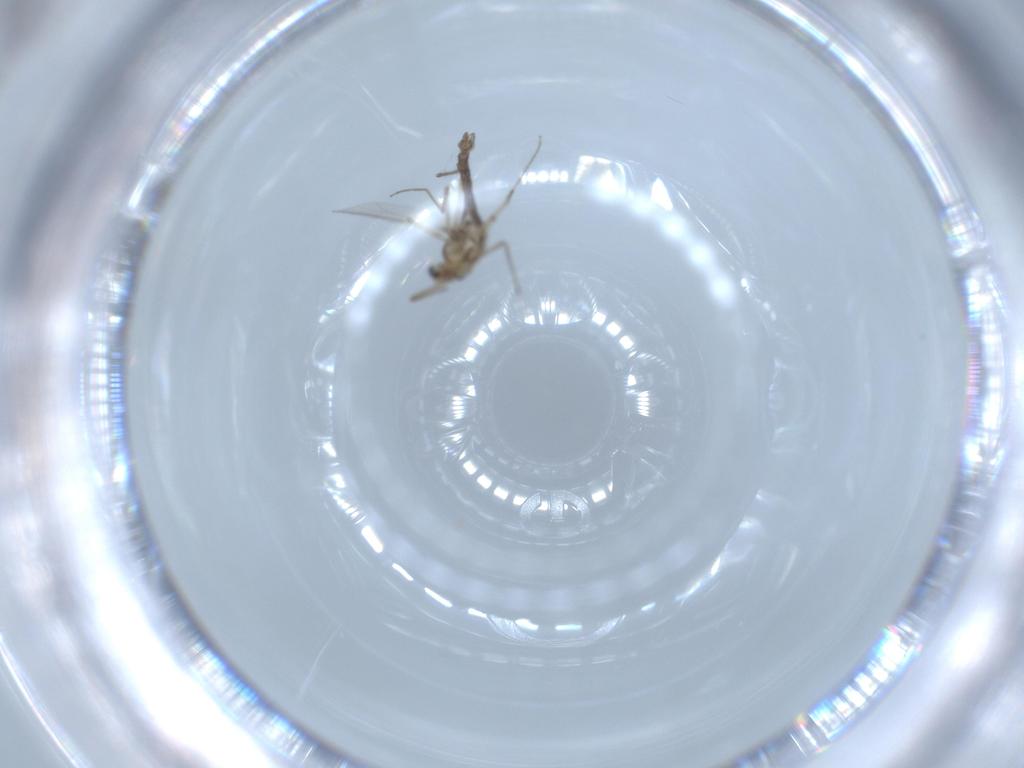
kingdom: Animalia
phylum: Arthropoda
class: Insecta
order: Diptera
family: Chironomidae
